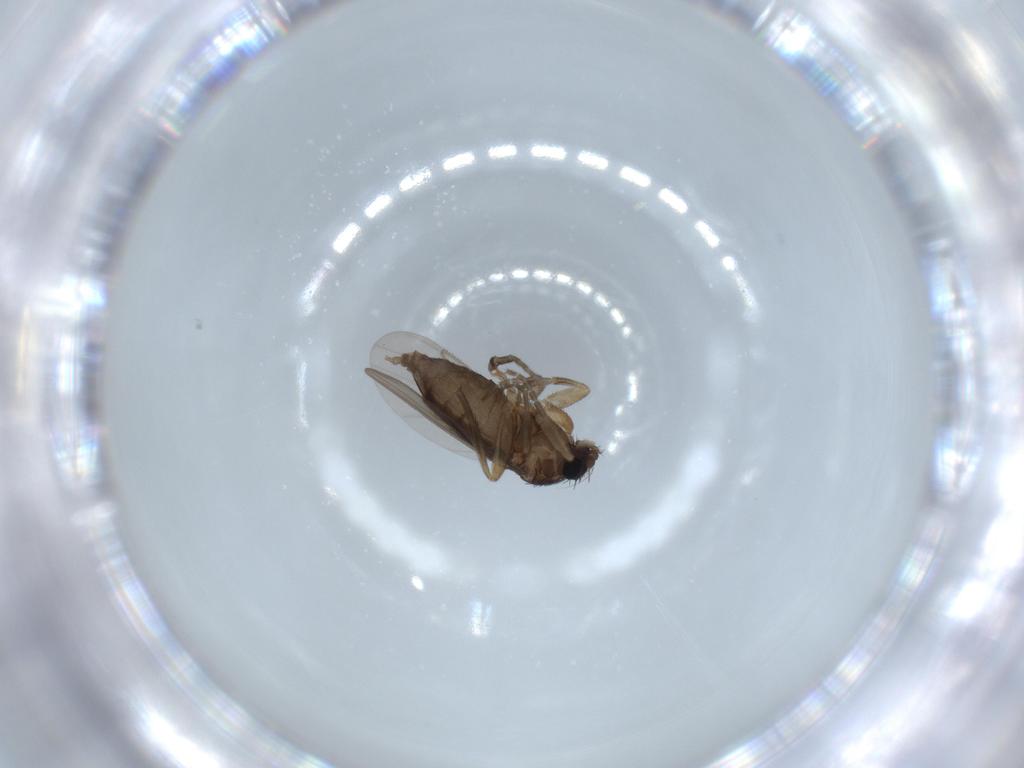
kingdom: Animalia
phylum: Arthropoda
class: Insecta
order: Diptera
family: Phoridae
